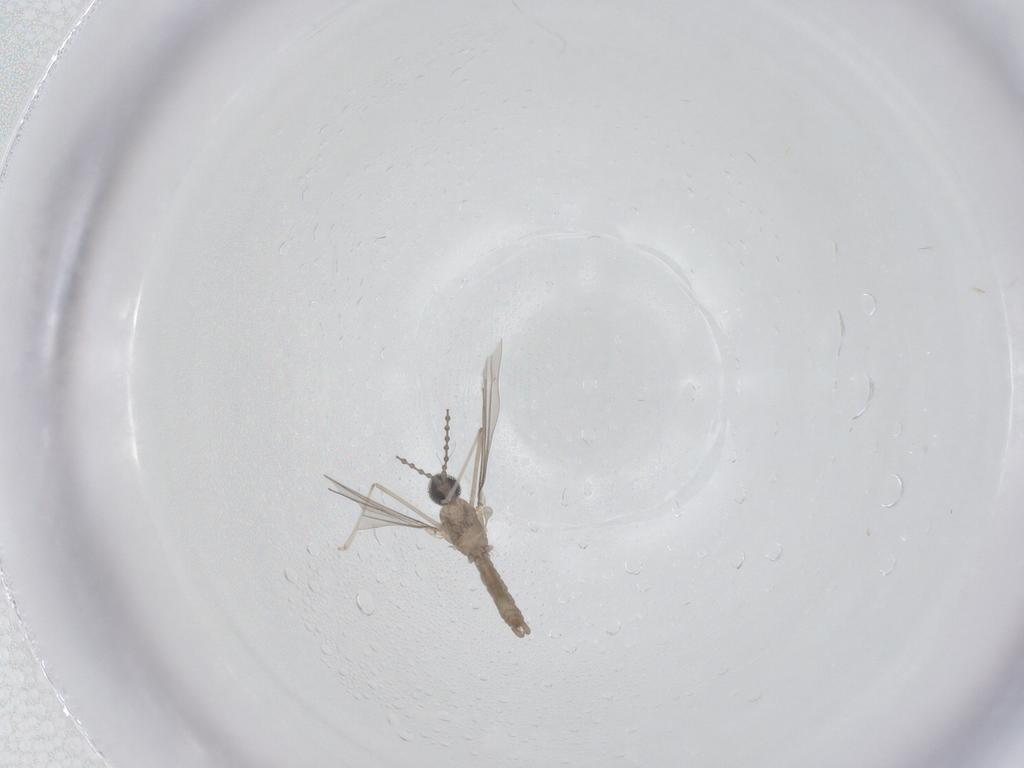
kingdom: Animalia
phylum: Arthropoda
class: Insecta
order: Diptera
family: Cecidomyiidae
